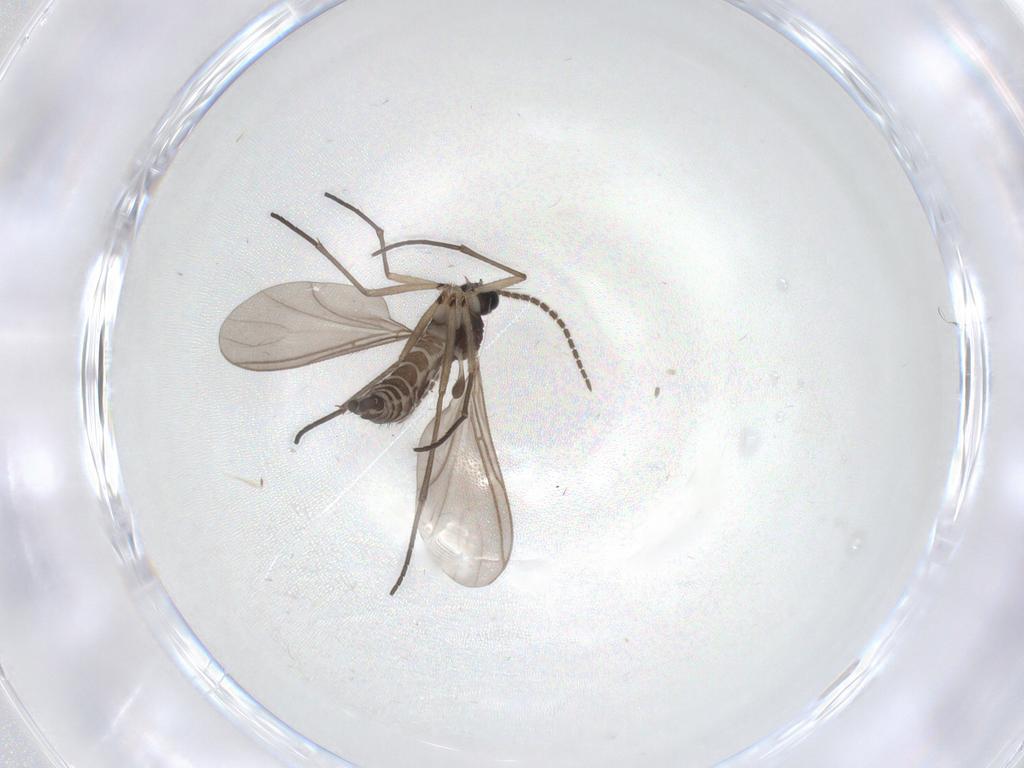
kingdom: Animalia
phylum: Arthropoda
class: Insecta
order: Diptera
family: Sciaridae
